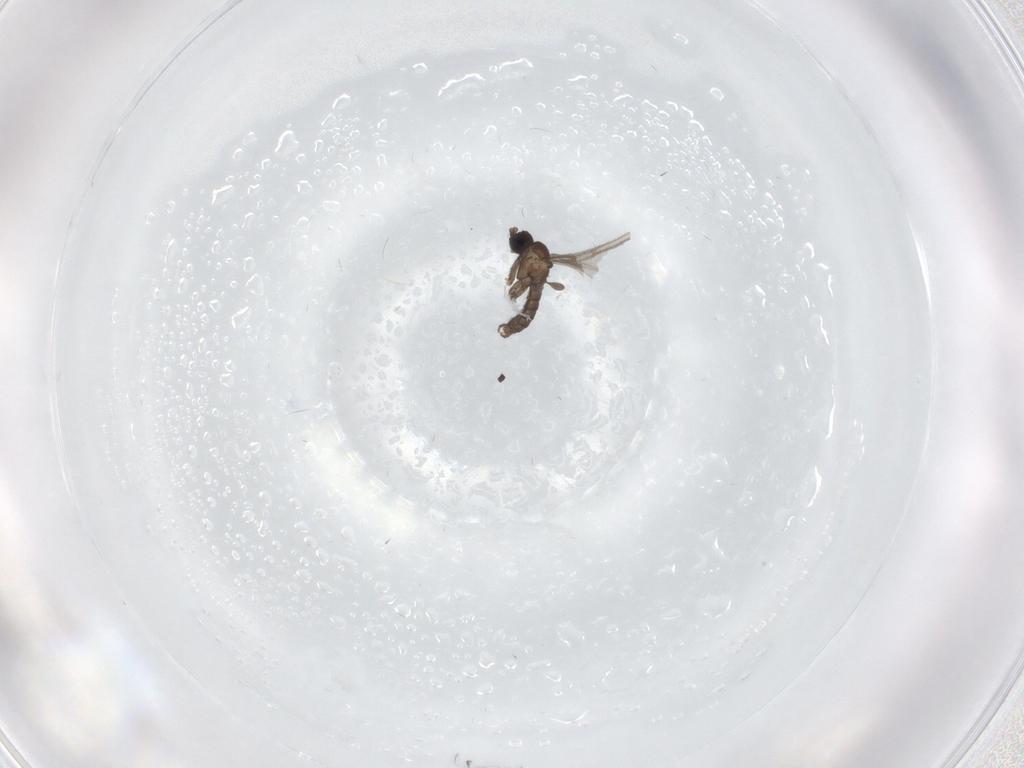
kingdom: Animalia
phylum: Arthropoda
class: Insecta
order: Diptera
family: Sciaridae
